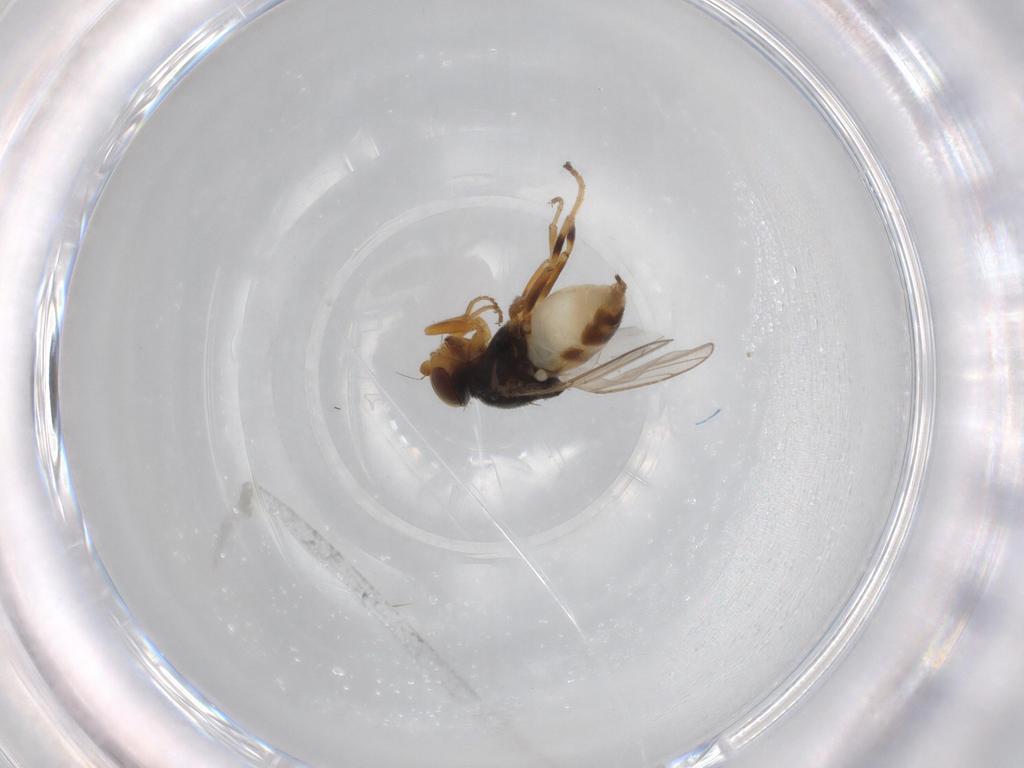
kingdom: Animalia
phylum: Arthropoda
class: Insecta
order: Diptera
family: Chloropidae
